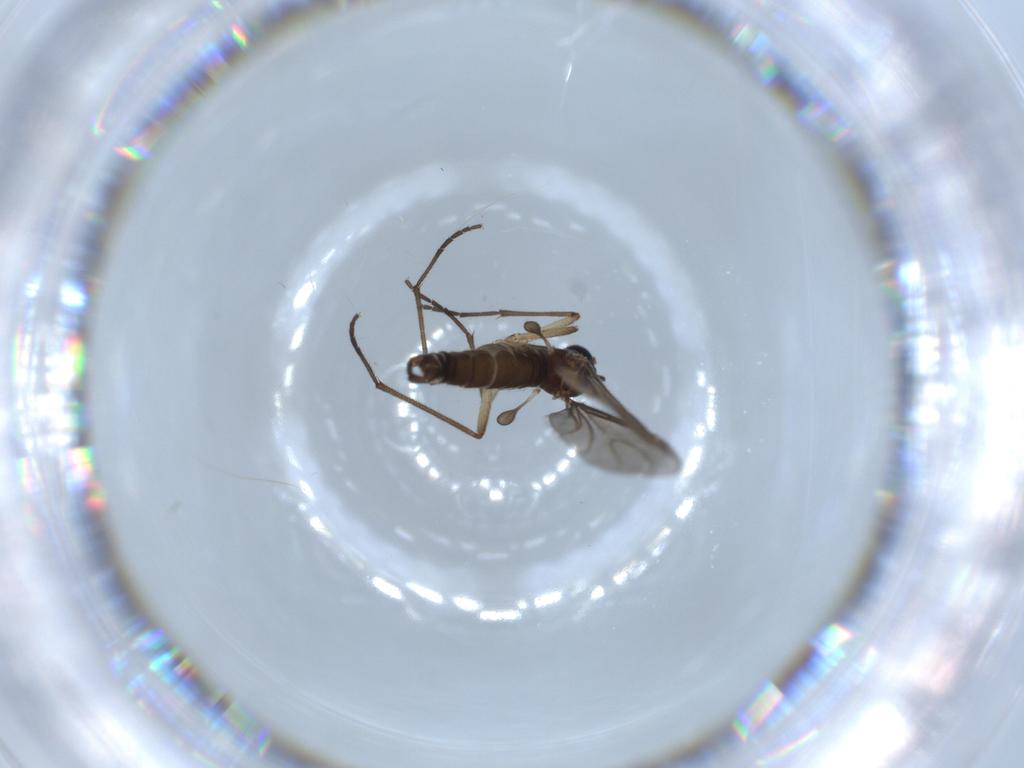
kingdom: Animalia
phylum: Arthropoda
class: Insecta
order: Diptera
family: Sciaridae
